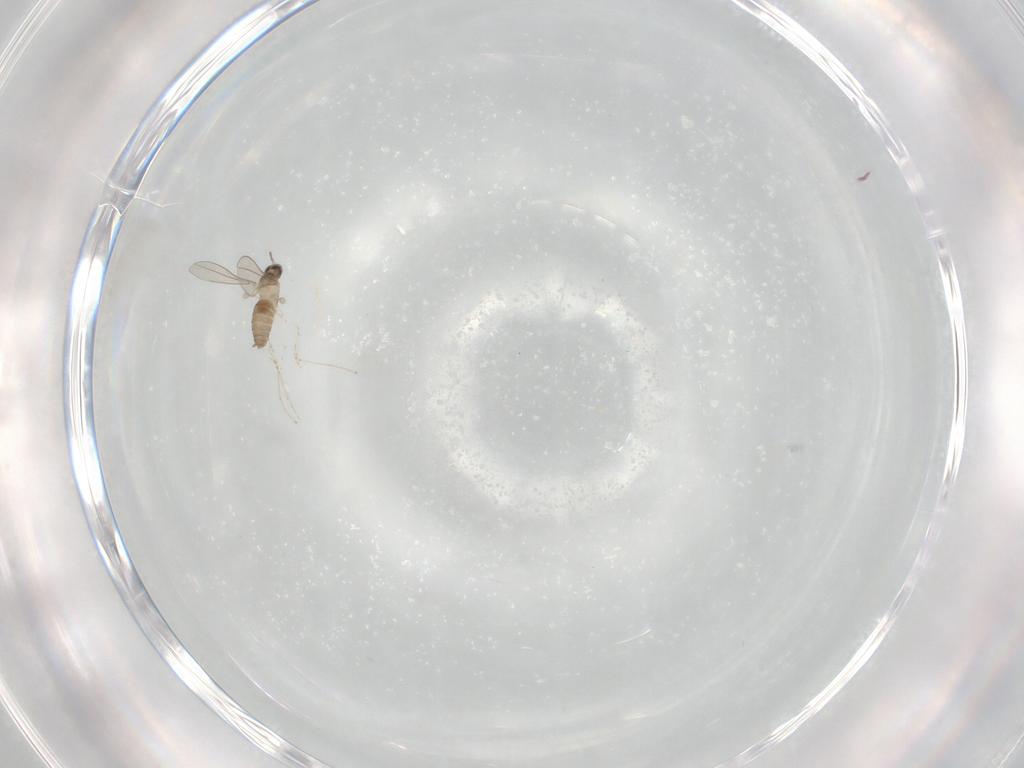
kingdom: Animalia
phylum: Arthropoda
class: Insecta
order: Diptera
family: Cecidomyiidae
